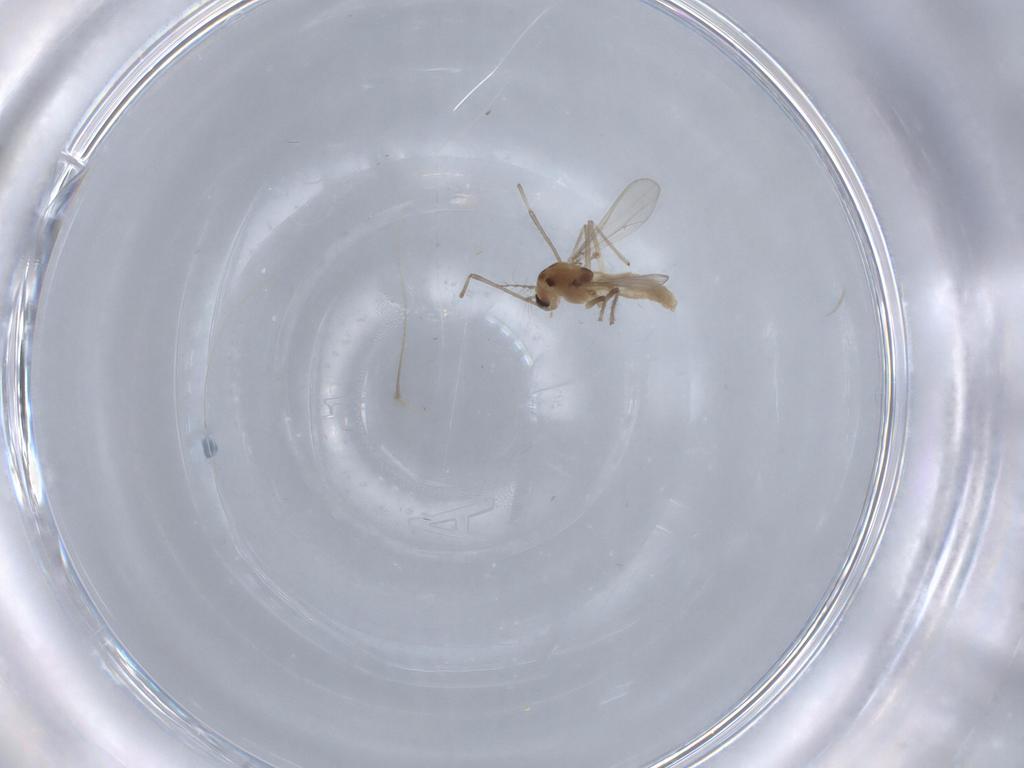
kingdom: Animalia
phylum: Arthropoda
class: Insecta
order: Diptera
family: Chironomidae
